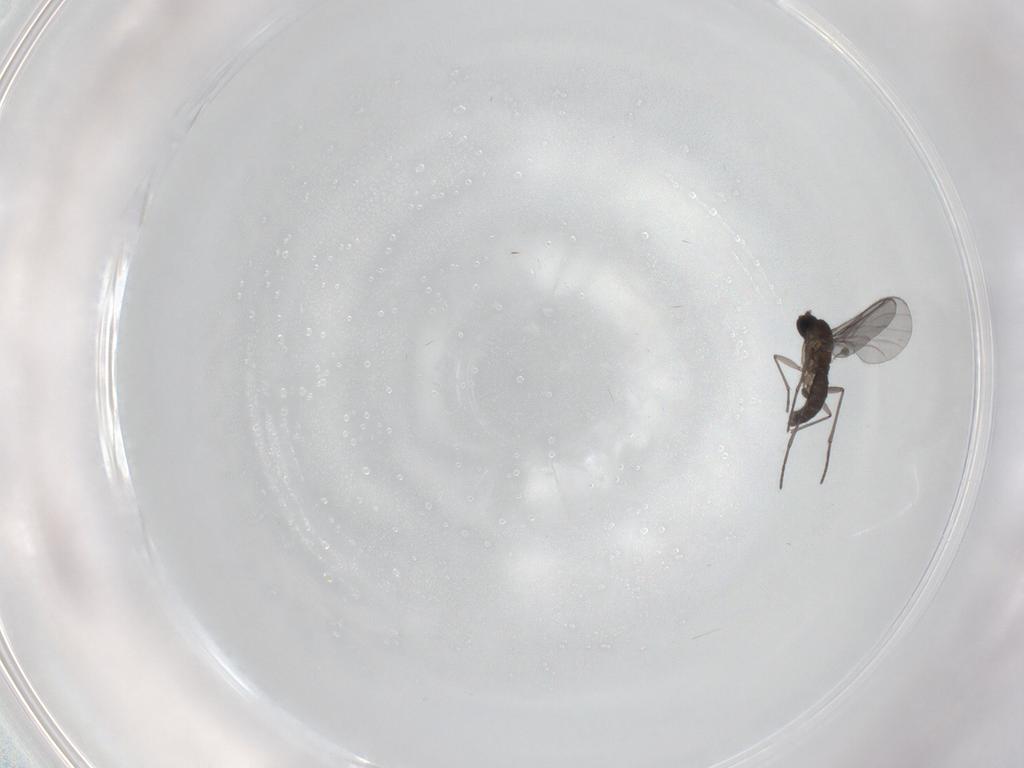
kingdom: Animalia
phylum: Arthropoda
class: Insecta
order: Diptera
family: Sciaridae
